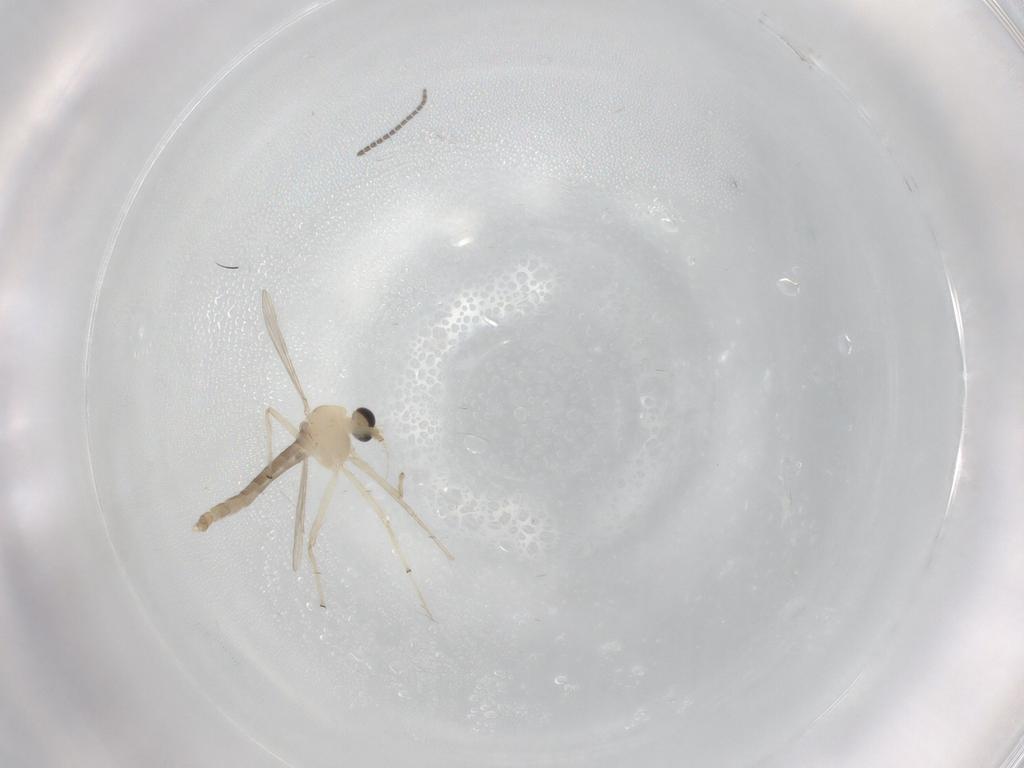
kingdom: Animalia
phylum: Arthropoda
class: Insecta
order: Diptera
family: Chironomidae
